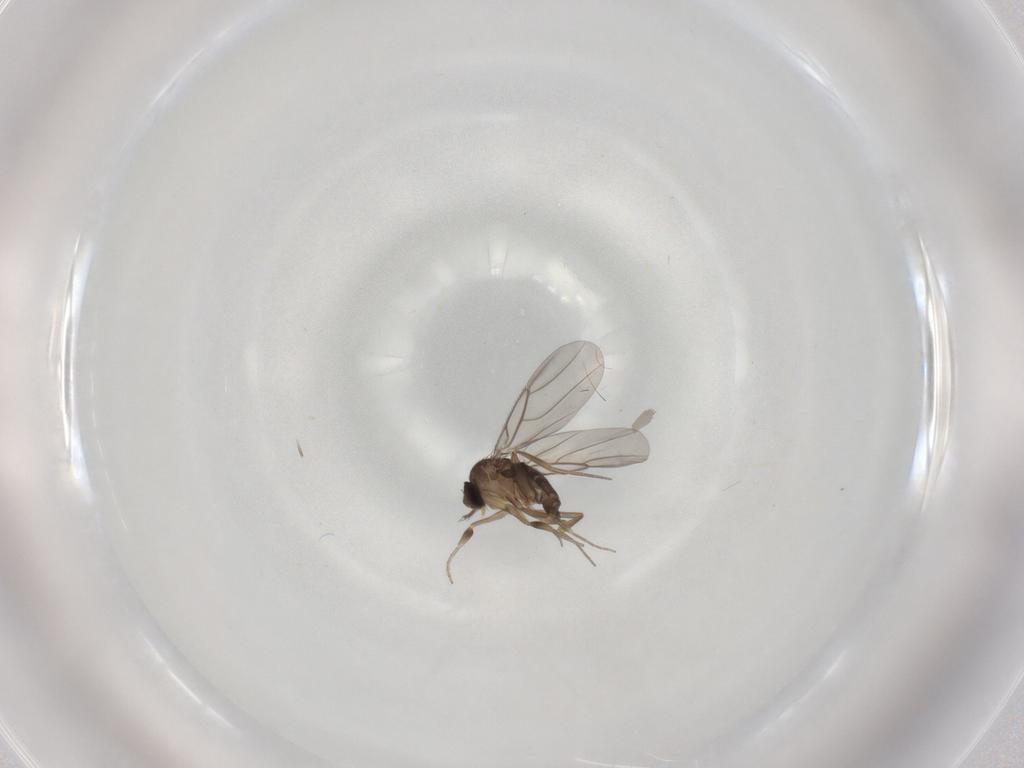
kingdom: Animalia
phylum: Arthropoda
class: Insecta
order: Diptera
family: Phoridae
